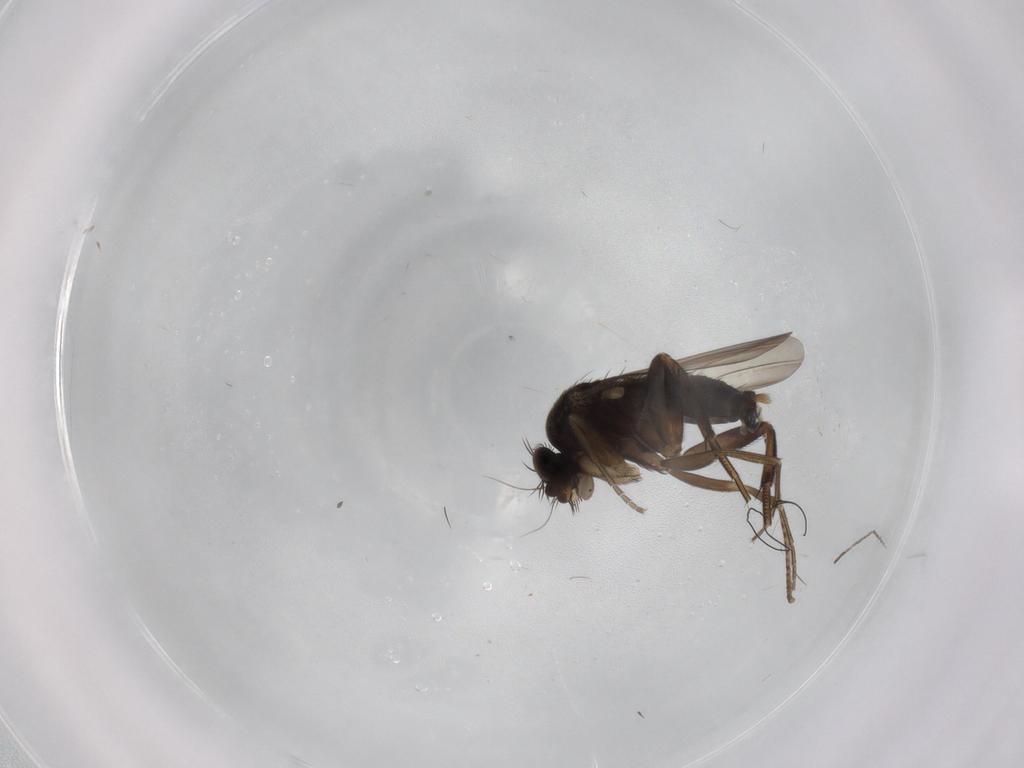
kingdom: Animalia
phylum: Arthropoda
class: Insecta
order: Diptera
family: Phoridae
